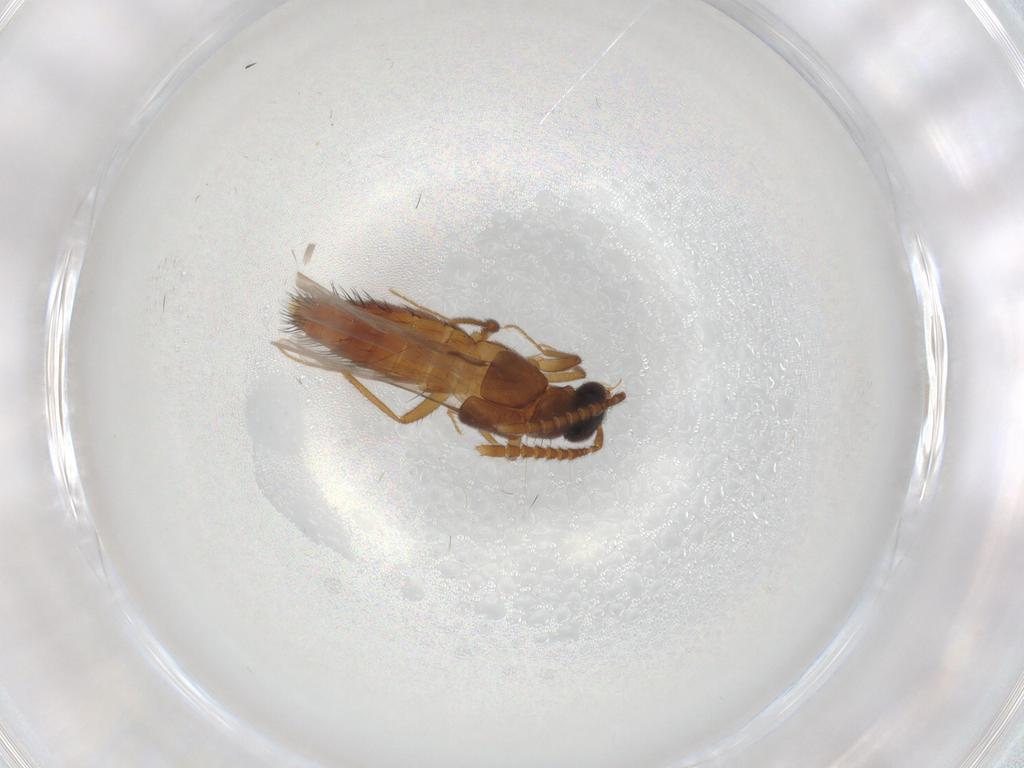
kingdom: Animalia
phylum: Arthropoda
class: Insecta
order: Coleoptera
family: Staphylinidae
